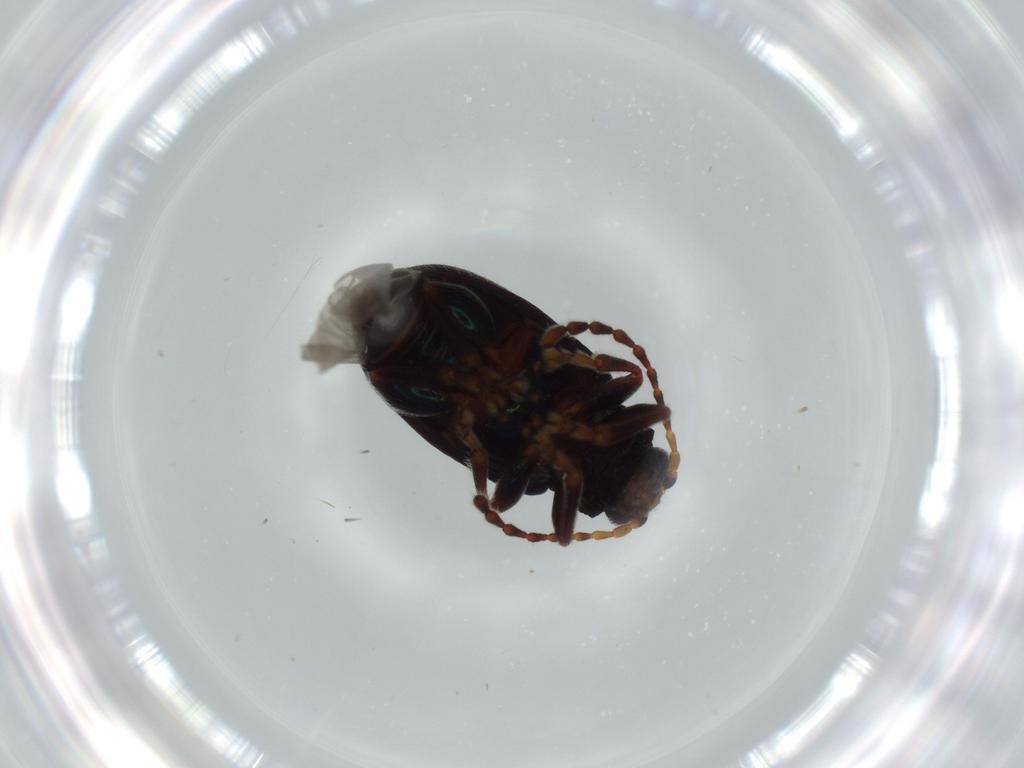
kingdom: Animalia
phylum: Arthropoda
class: Insecta
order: Coleoptera
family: Chrysomelidae
